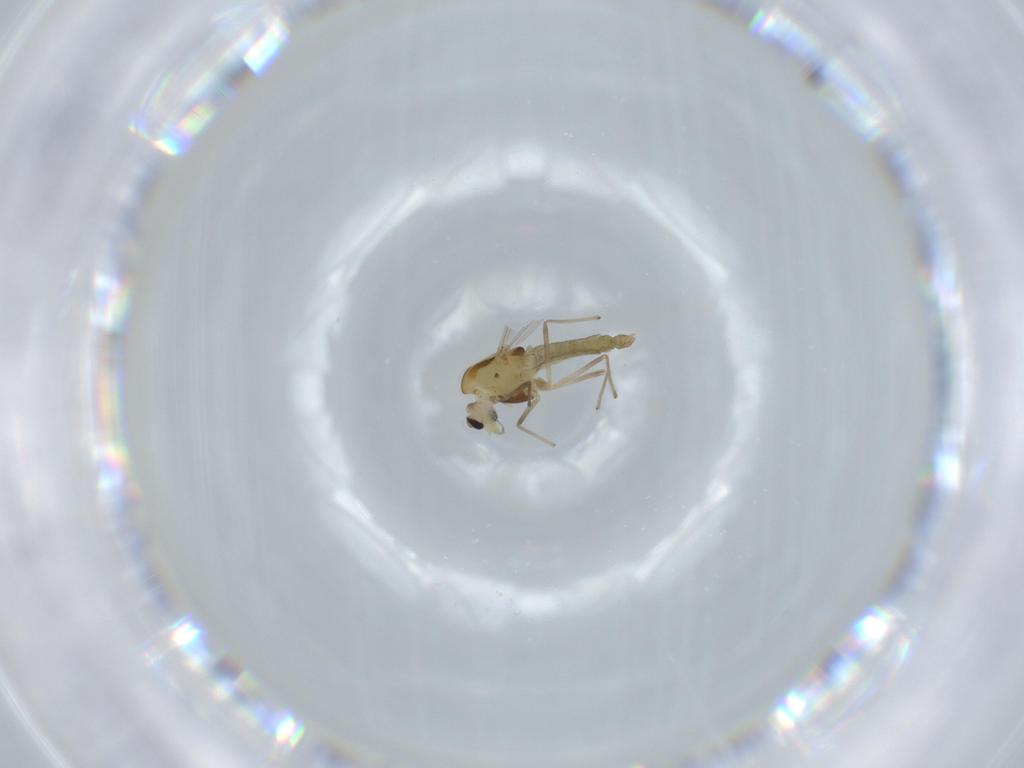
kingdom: Animalia
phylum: Arthropoda
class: Insecta
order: Diptera
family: Chironomidae
